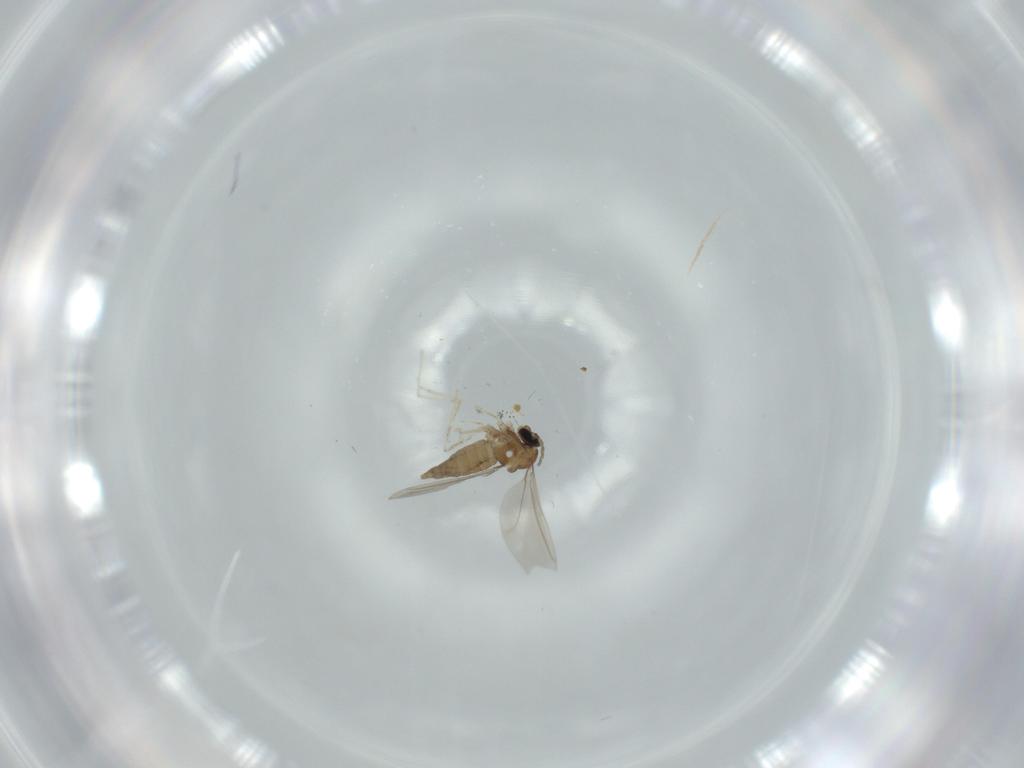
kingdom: Animalia
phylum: Arthropoda
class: Insecta
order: Diptera
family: Cecidomyiidae
